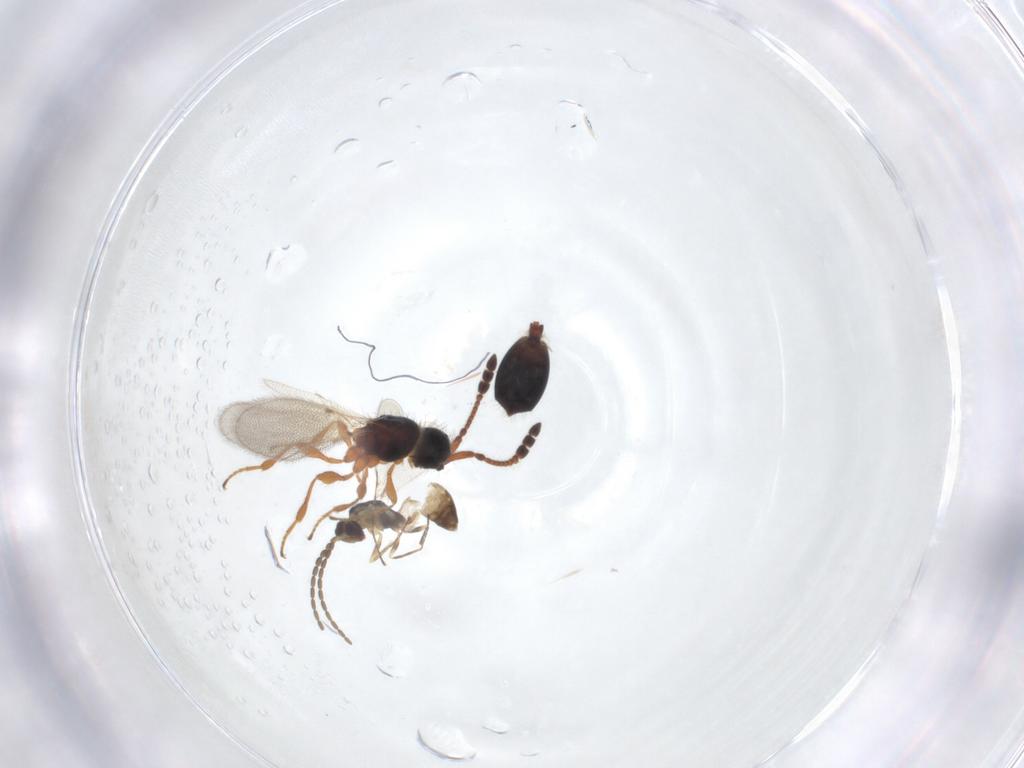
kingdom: Animalia
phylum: Arthropoda
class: Insecta
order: Hymenoptera
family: Diapriidae
